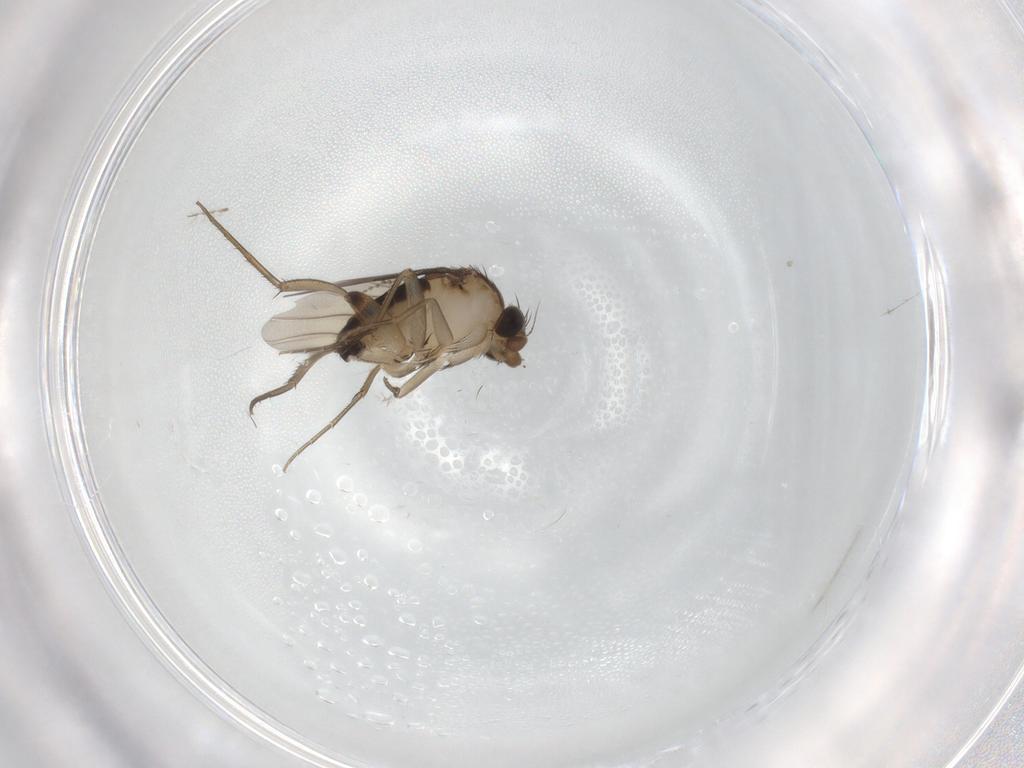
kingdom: Animalia
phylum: Arthropoda
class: Insecta
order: Diptera
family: Phoridae
